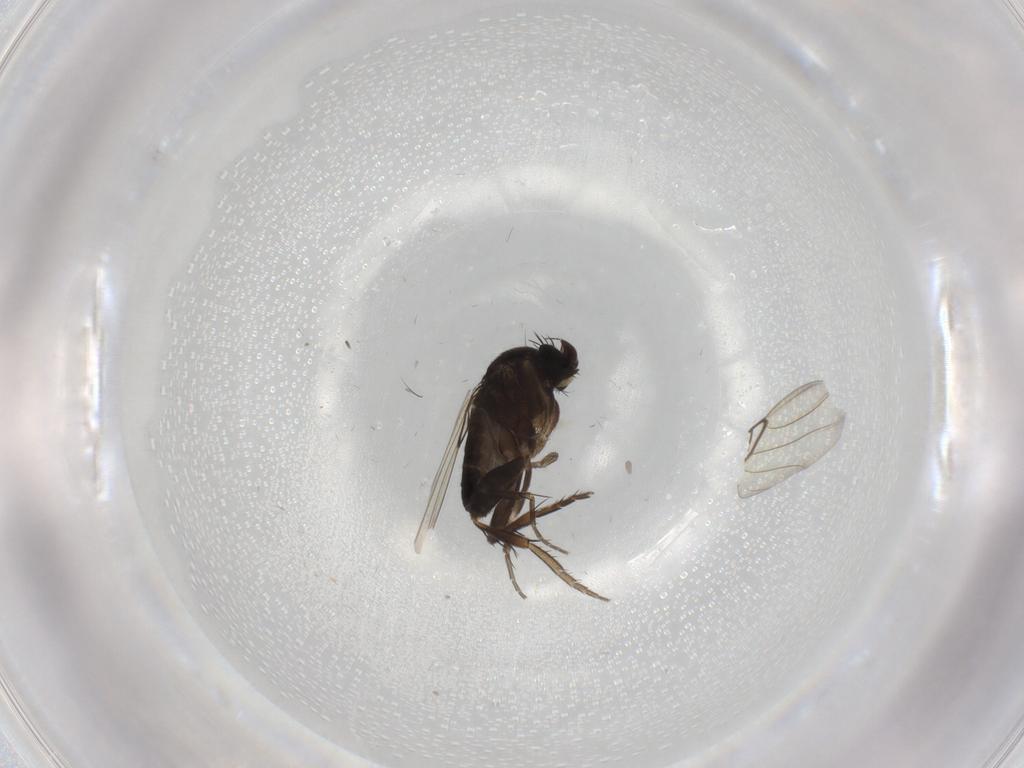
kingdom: Animalia
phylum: Arthropoda
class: Insecta
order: Diptera
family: Phoridae
